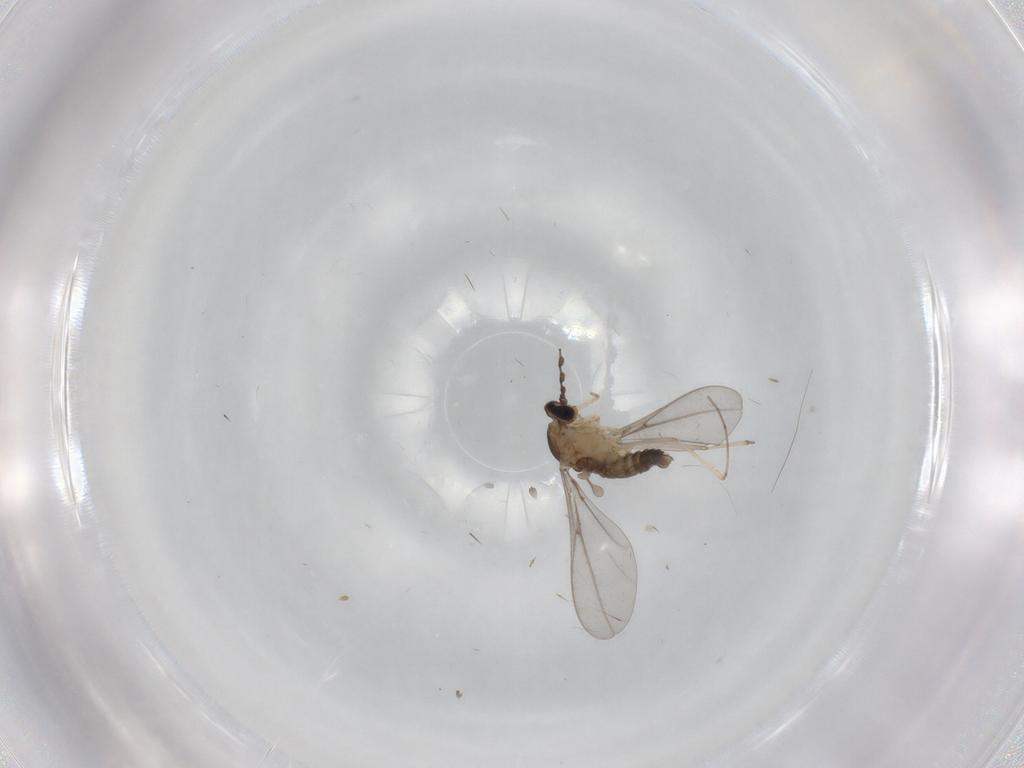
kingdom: Animalia
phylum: Arthropoda
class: Insecta
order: Diptera
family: Cecidomyiidae
